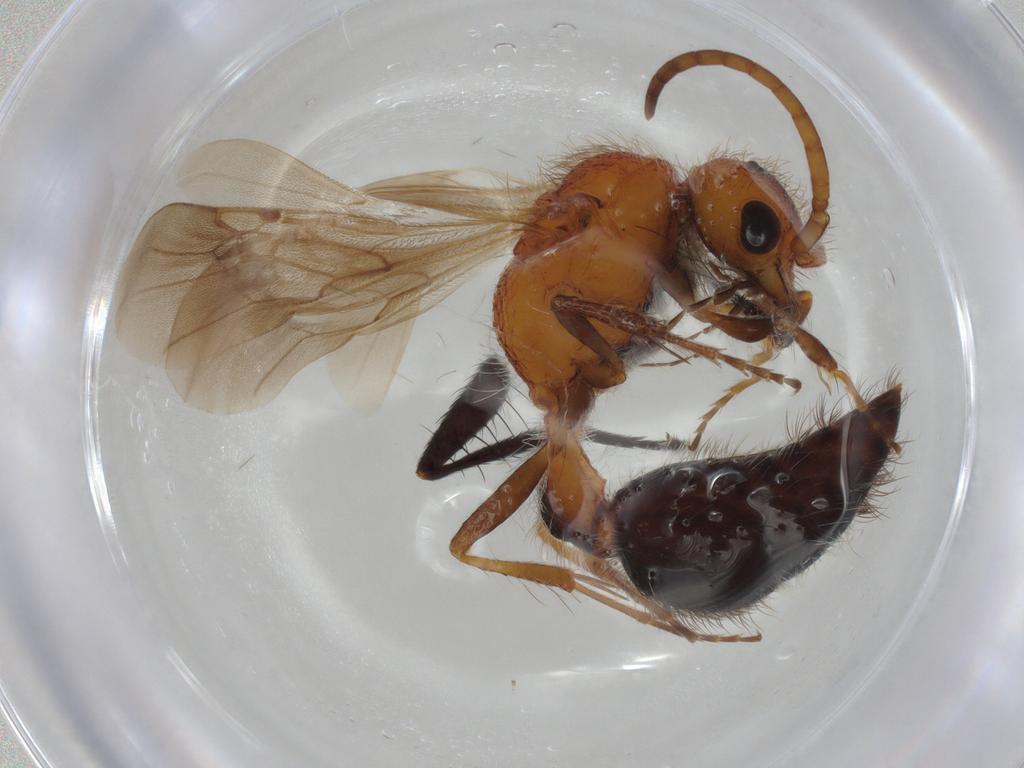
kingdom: Animalia
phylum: Arthropoda
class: Insecta
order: Hymenoptera
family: Mutillidae
